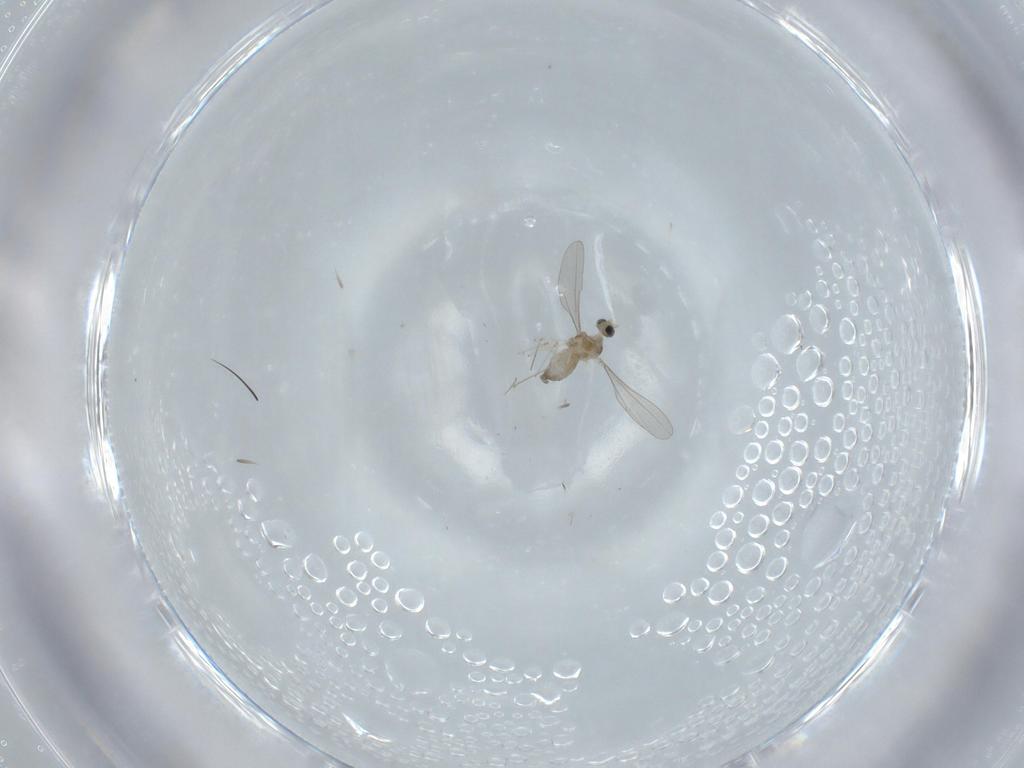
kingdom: Animalia
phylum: Arthropoda
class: Insecta
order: Diptera
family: Cecidomyiidae
